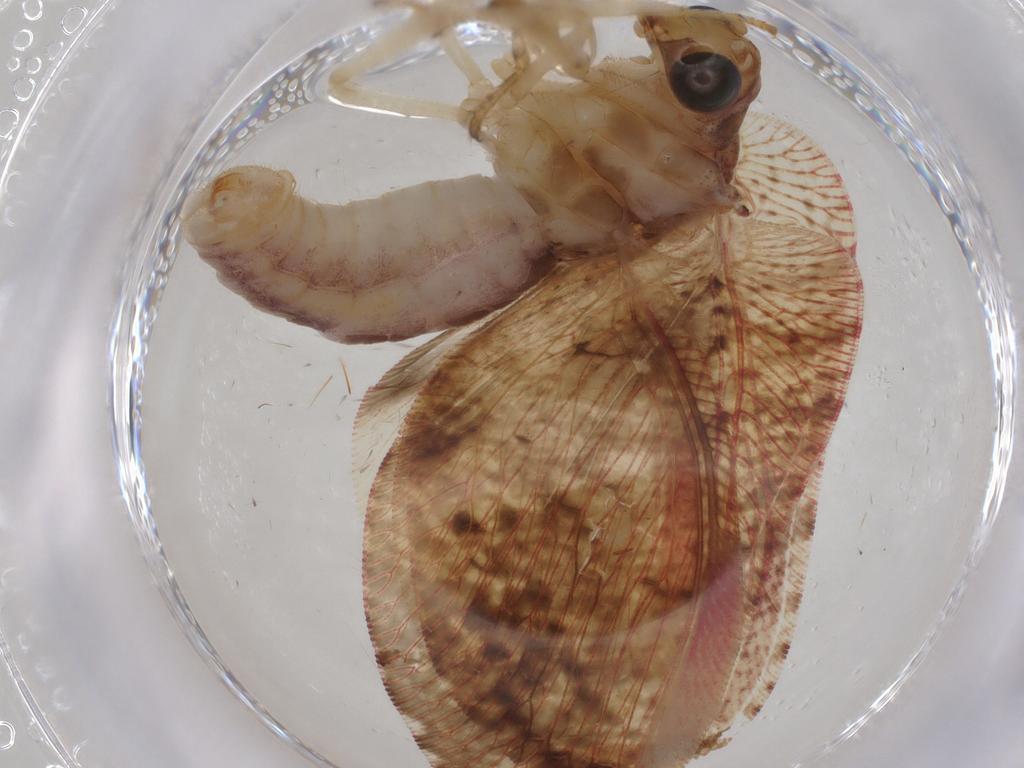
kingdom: Animalia
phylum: Arthropoda
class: Insecta
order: Neuroptera
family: Hemerobiidae
